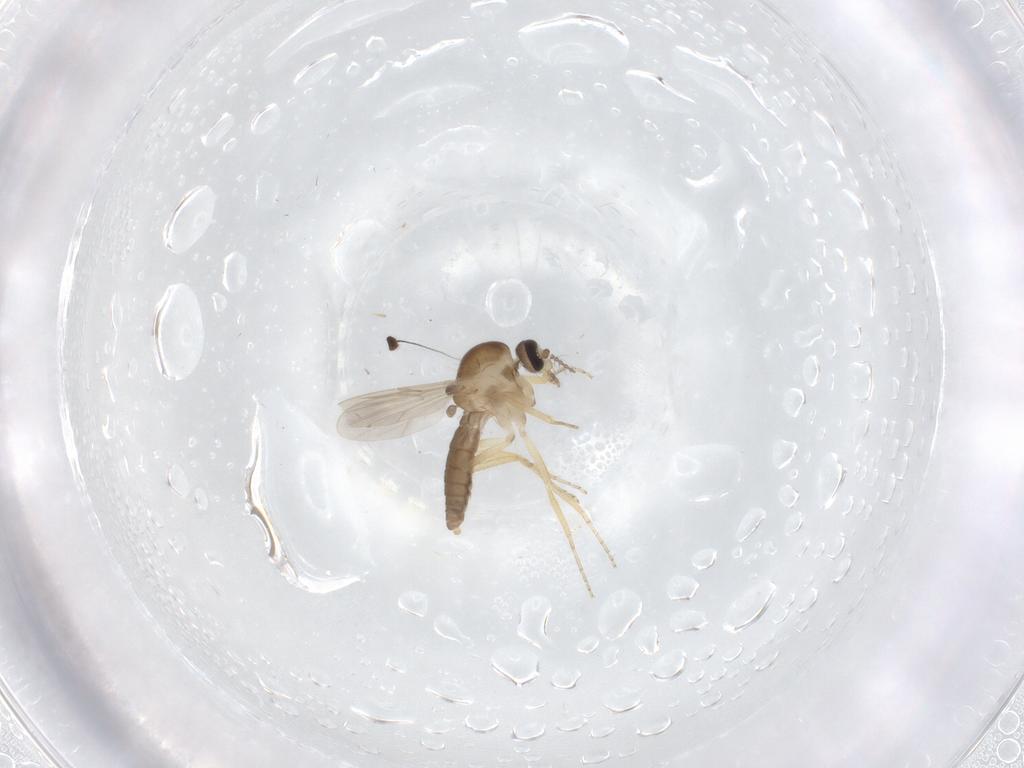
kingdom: Animalia
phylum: Arthropoda
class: Insecta
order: Diptera
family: Ceratopogonidae
